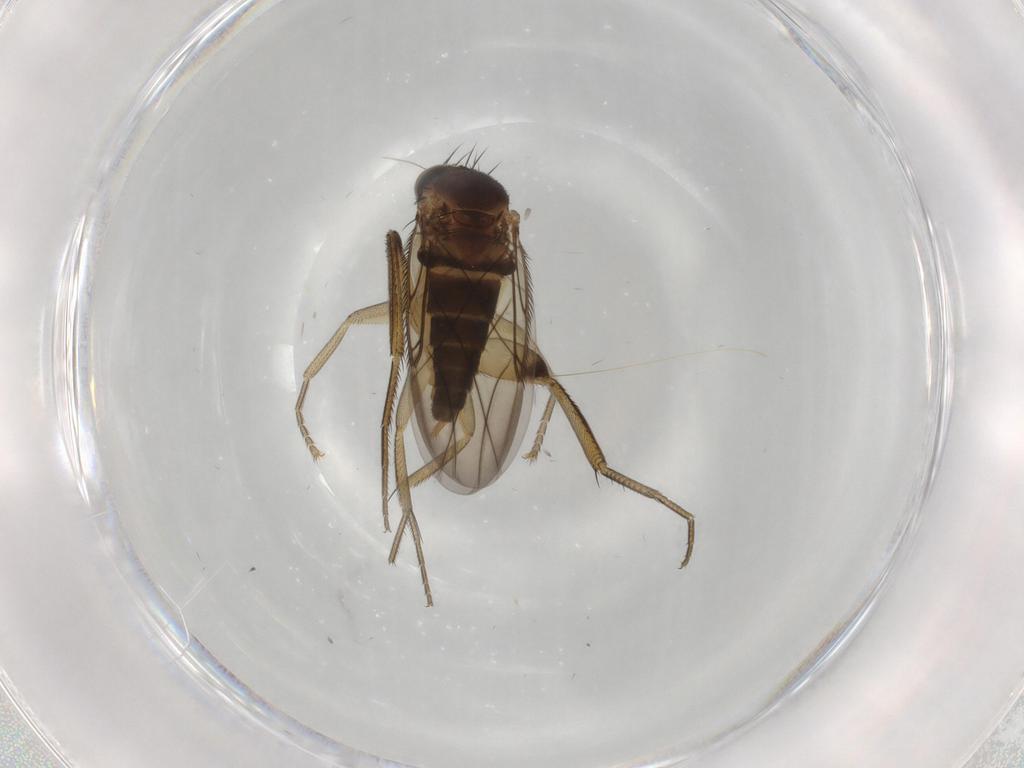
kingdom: Animalia
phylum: Arthropoda
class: Insecta
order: Diptera
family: Phoridae
